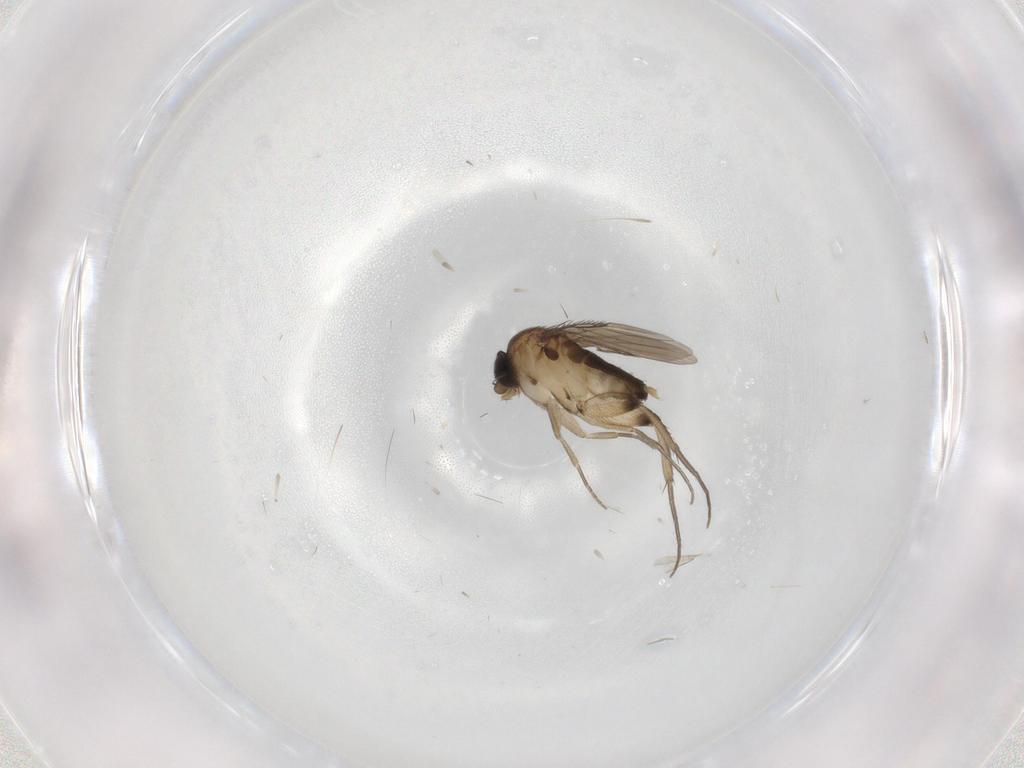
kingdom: Animalia
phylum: Arthropoda
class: Insecta
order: Diptera
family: Phoridae
